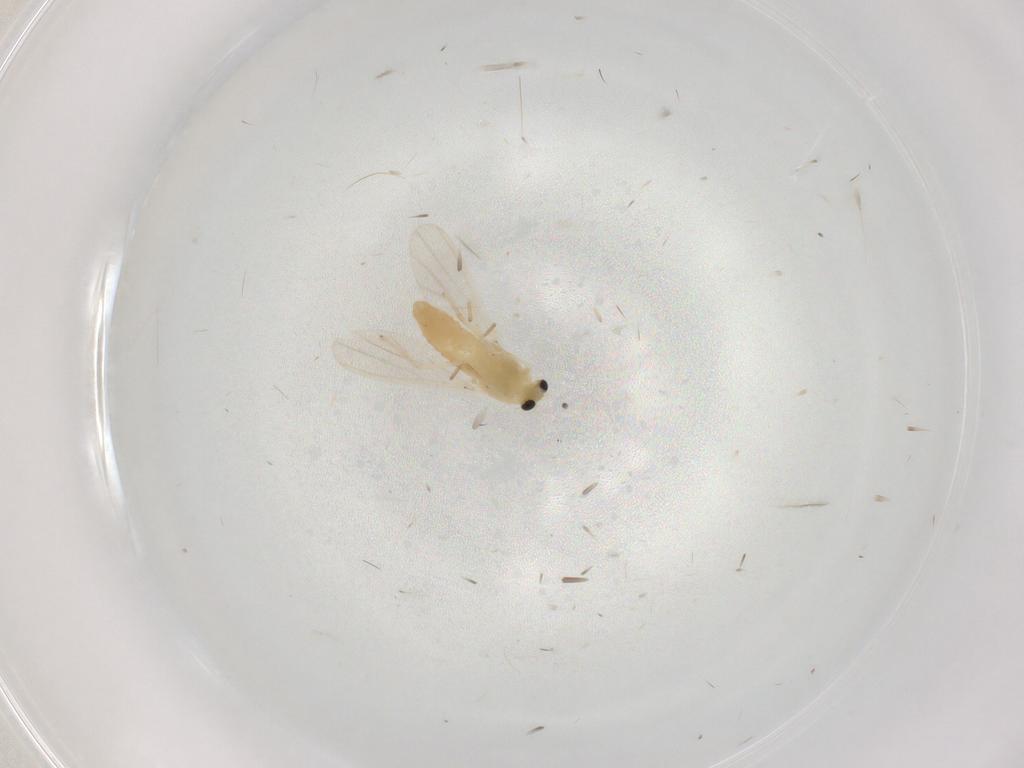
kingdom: Animalia
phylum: Arthropoda
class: Insecta
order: Diptera
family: Chironomidae
